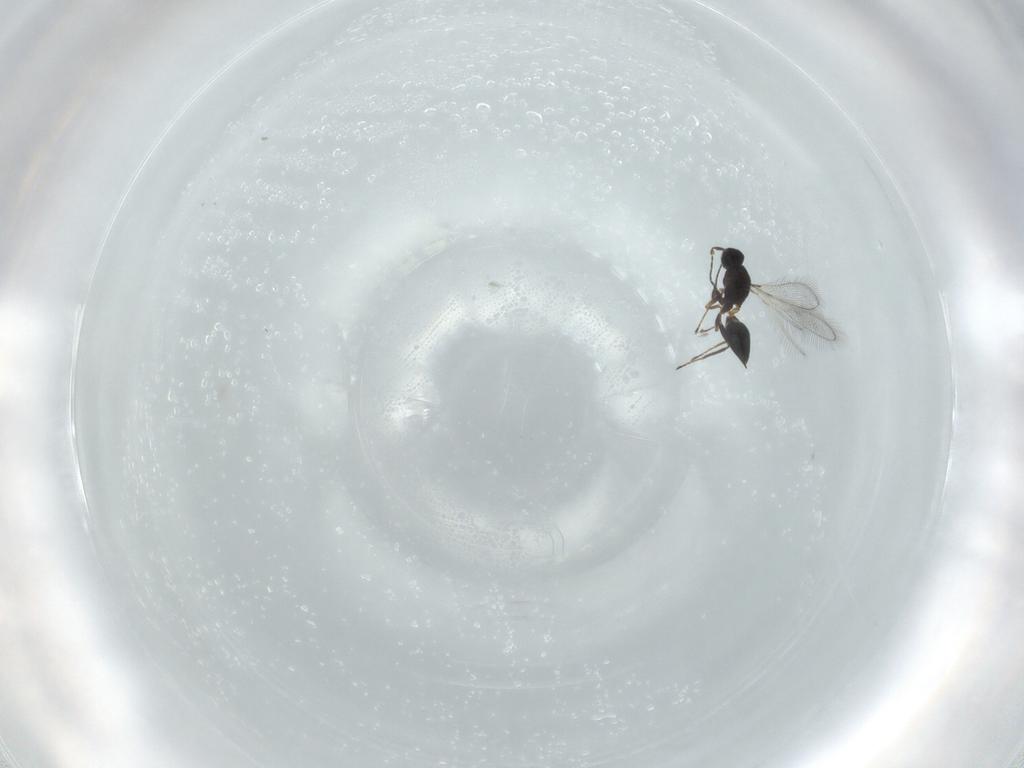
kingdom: Animalia
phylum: Arthropoda
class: Insecta
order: Hymenoptera
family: Mymaridae
